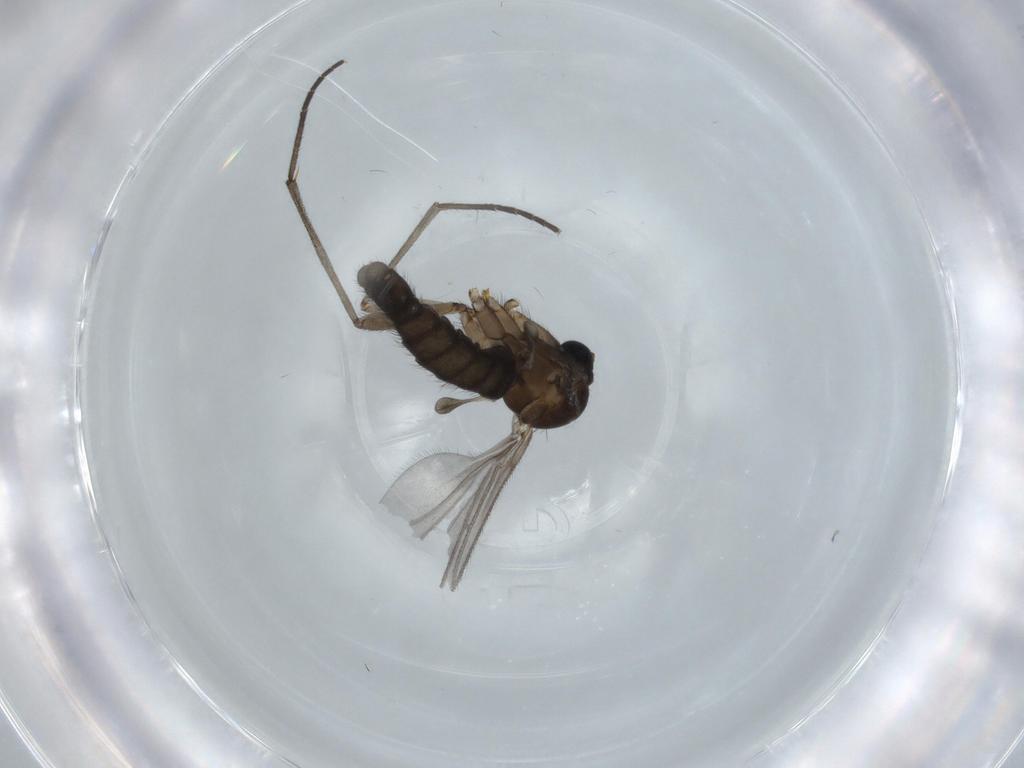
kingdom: Animalia
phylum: Arthropoda
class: Insecta
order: Diptera
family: Sciaridae
